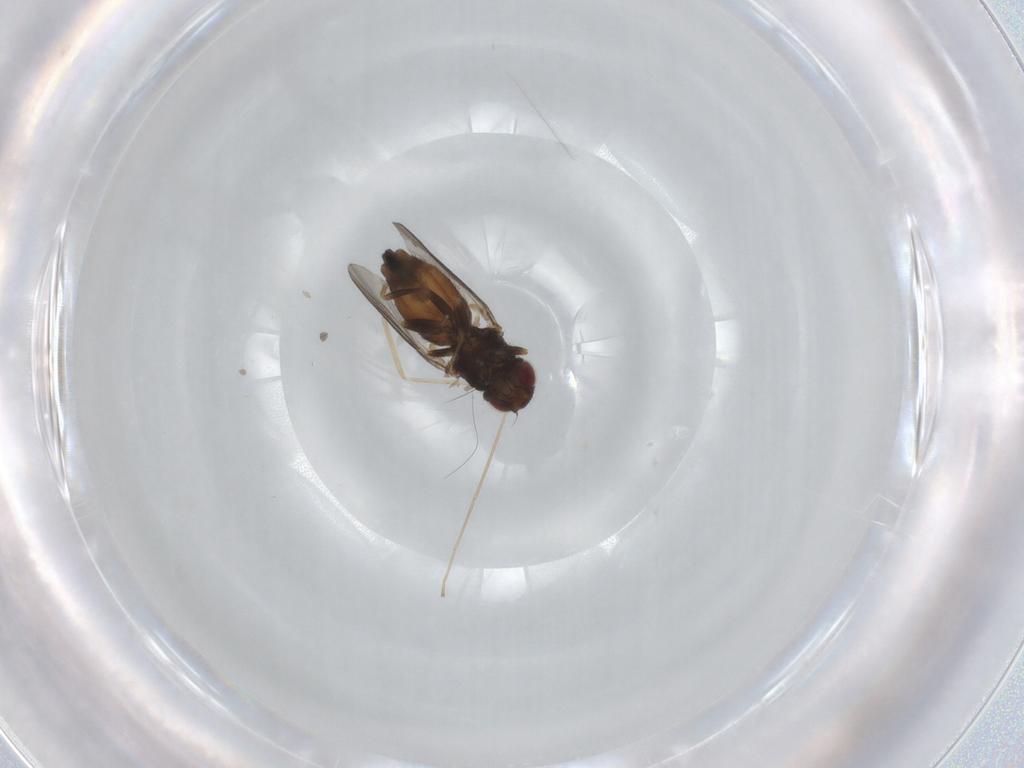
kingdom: Animalia
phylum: Arthropoda
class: Insecta
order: Diptera
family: Chloropidae
